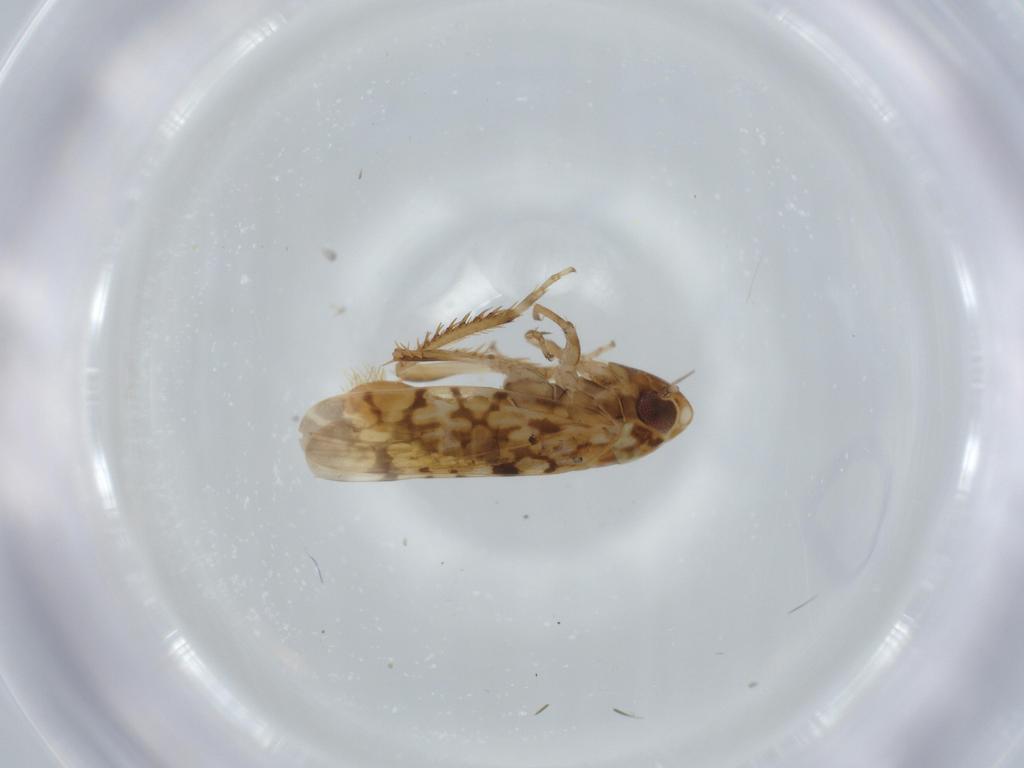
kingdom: Animalia
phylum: Arthropoda
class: Insecta
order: Hemiptera
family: Cicadellidae
